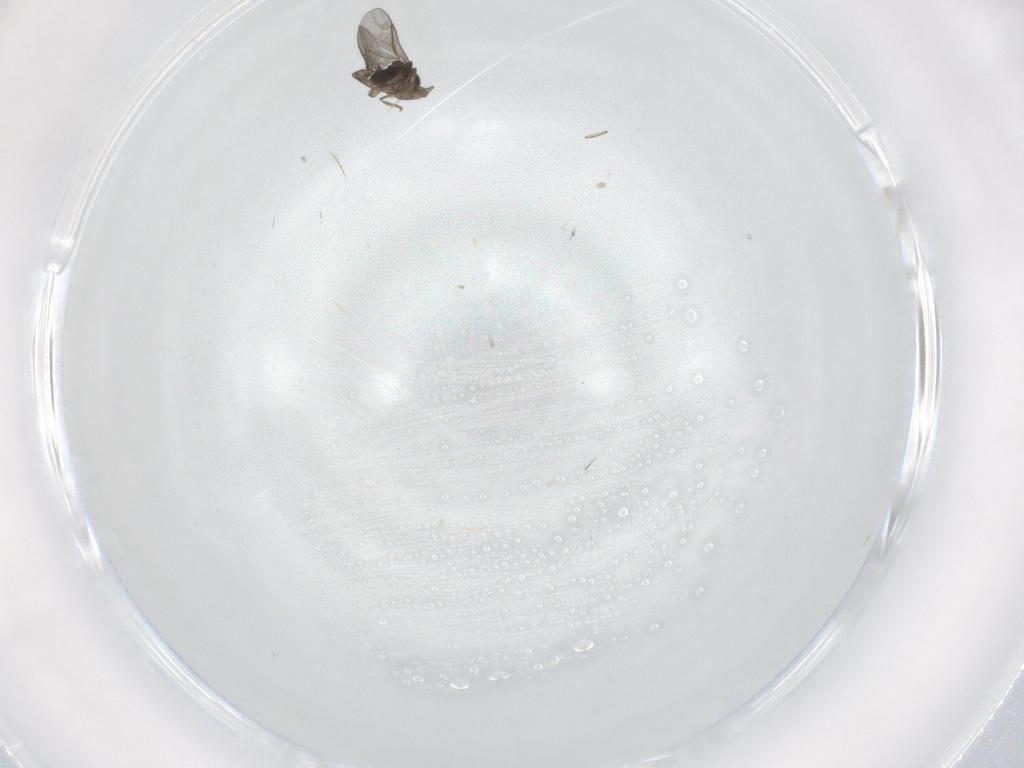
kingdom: Animalia
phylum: Arthropoda
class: Insecta
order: Diptera
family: Cecidomyiidae
